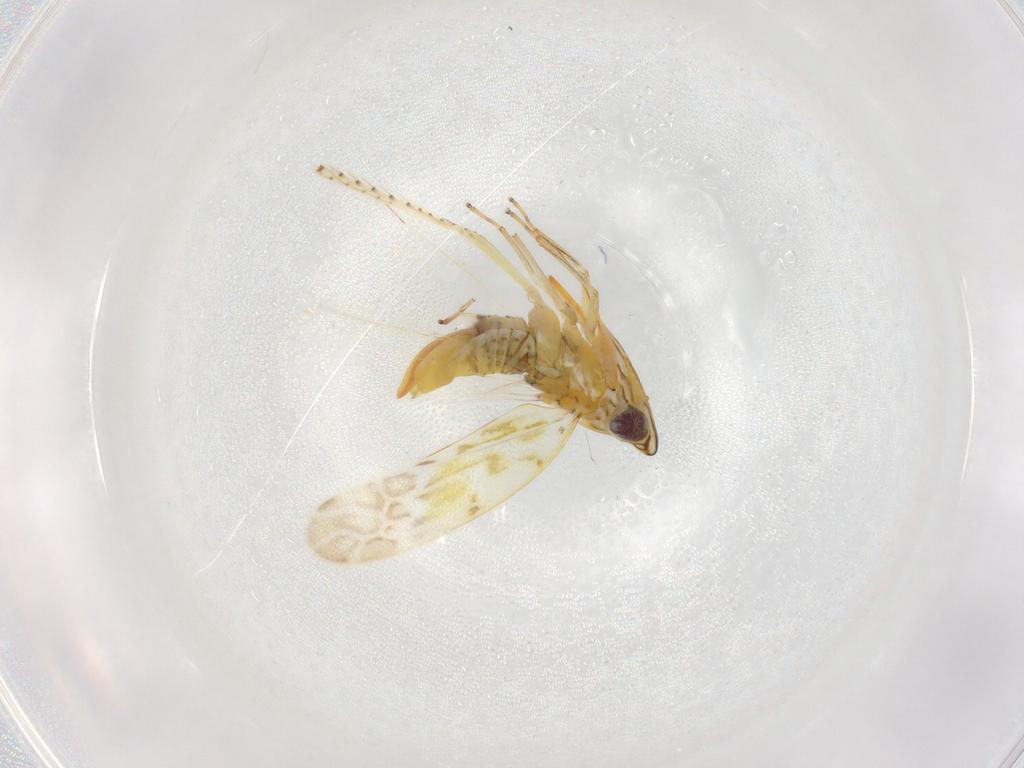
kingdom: Animalia
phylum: Arthropoda
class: Insecta
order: Hemiptera
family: Cicadellidae
